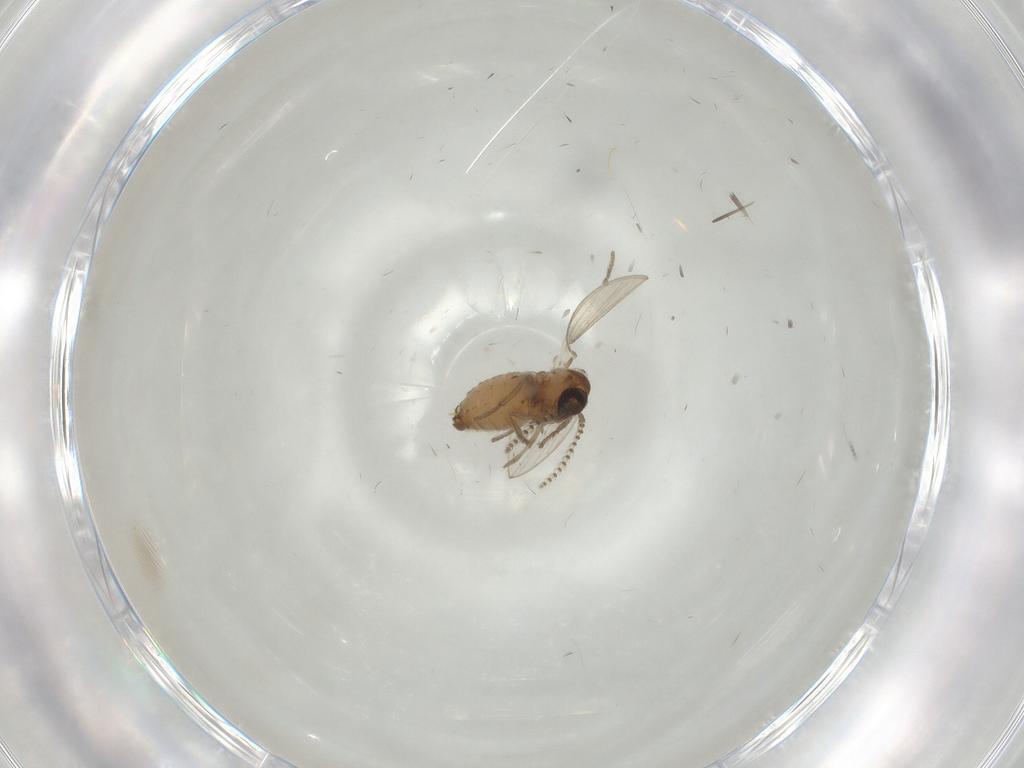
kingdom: Animalia
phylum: Arthropoda
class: Insecta
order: Diptera
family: Psychodidae
